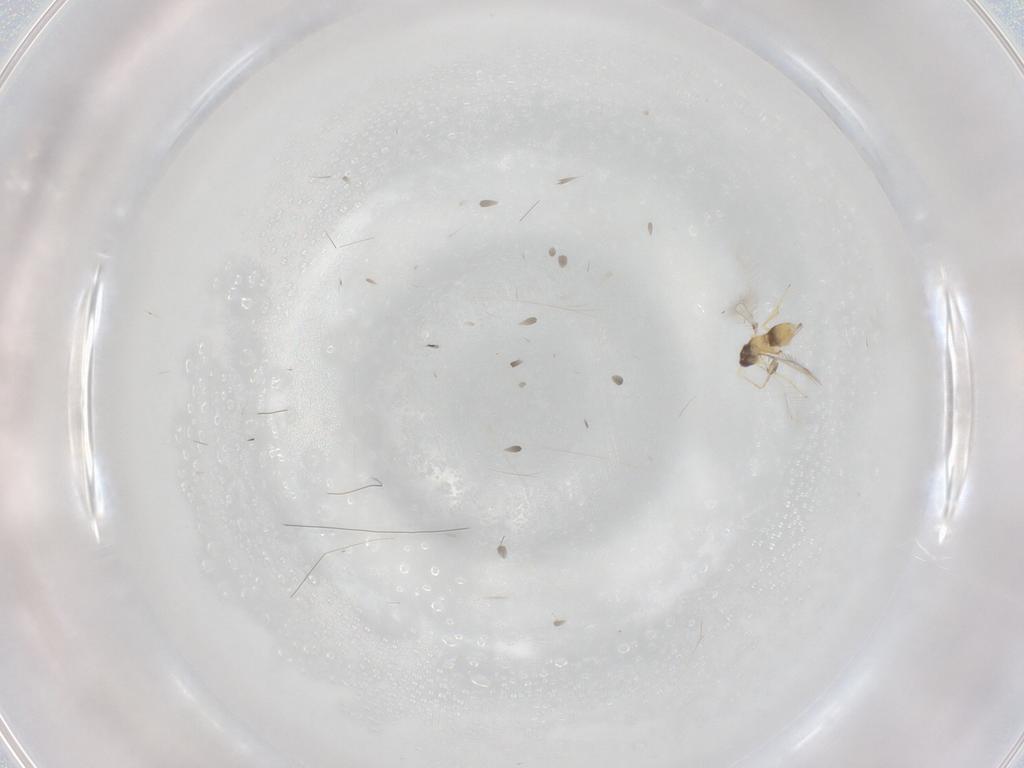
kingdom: Animalia
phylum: Arthropoda
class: Insecta
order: Hymenoptera
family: Mymaridae
